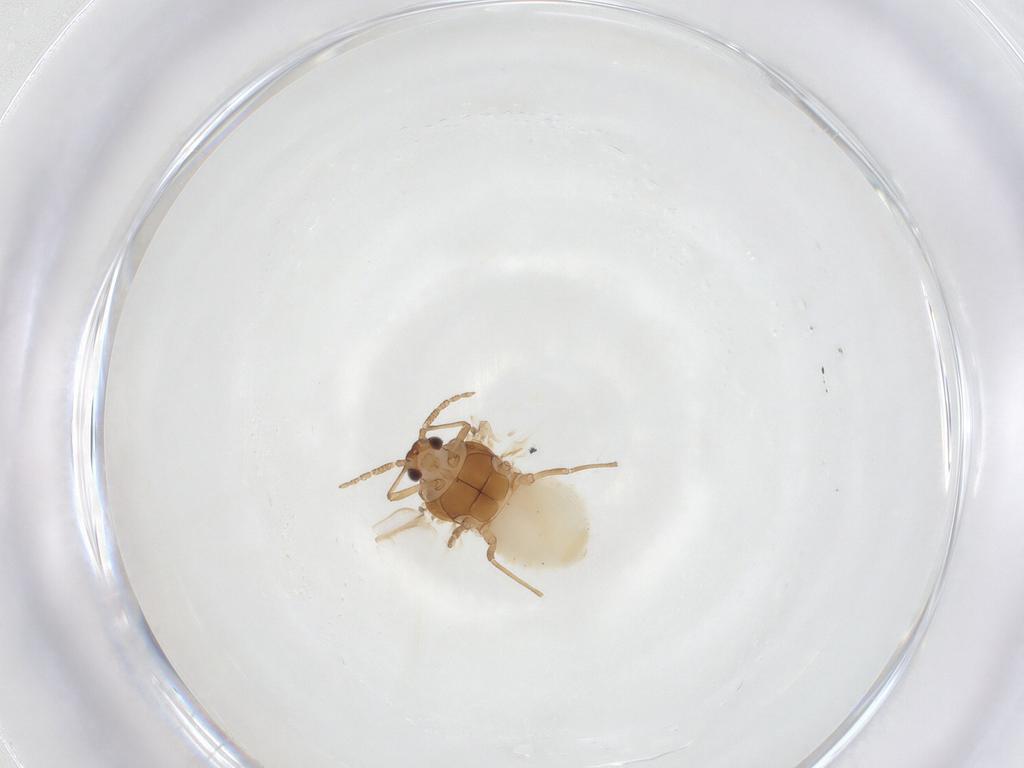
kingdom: Animalia
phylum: Arthropoda
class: Insecta
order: Hemiptera
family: Aphididae
